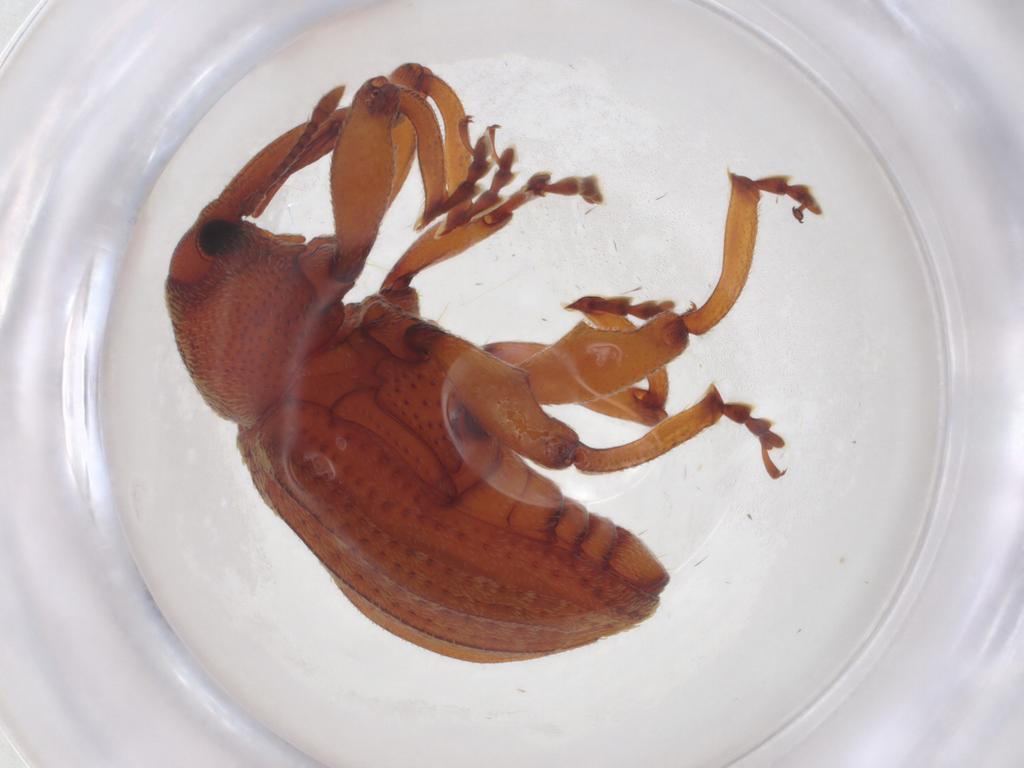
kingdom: Animalia
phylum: Arthropoda
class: Insecta
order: Coleoptera
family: Curculionidae
